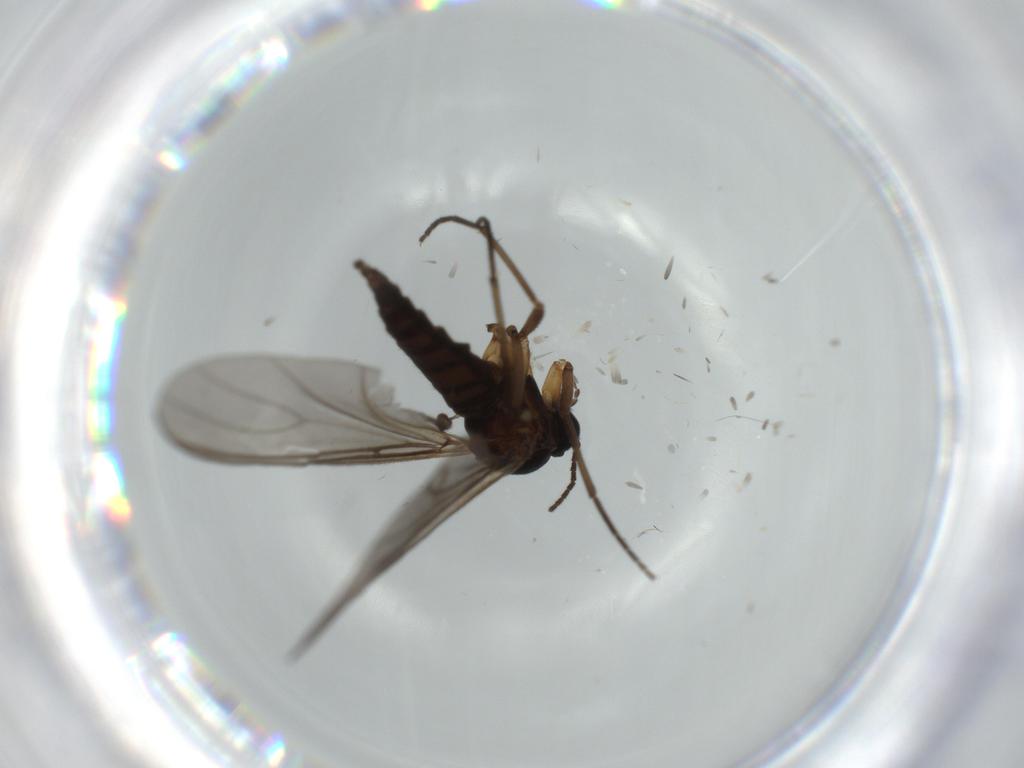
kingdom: Animalia
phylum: Arthropoda
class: Insecta
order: Diptera
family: Sciaridae
